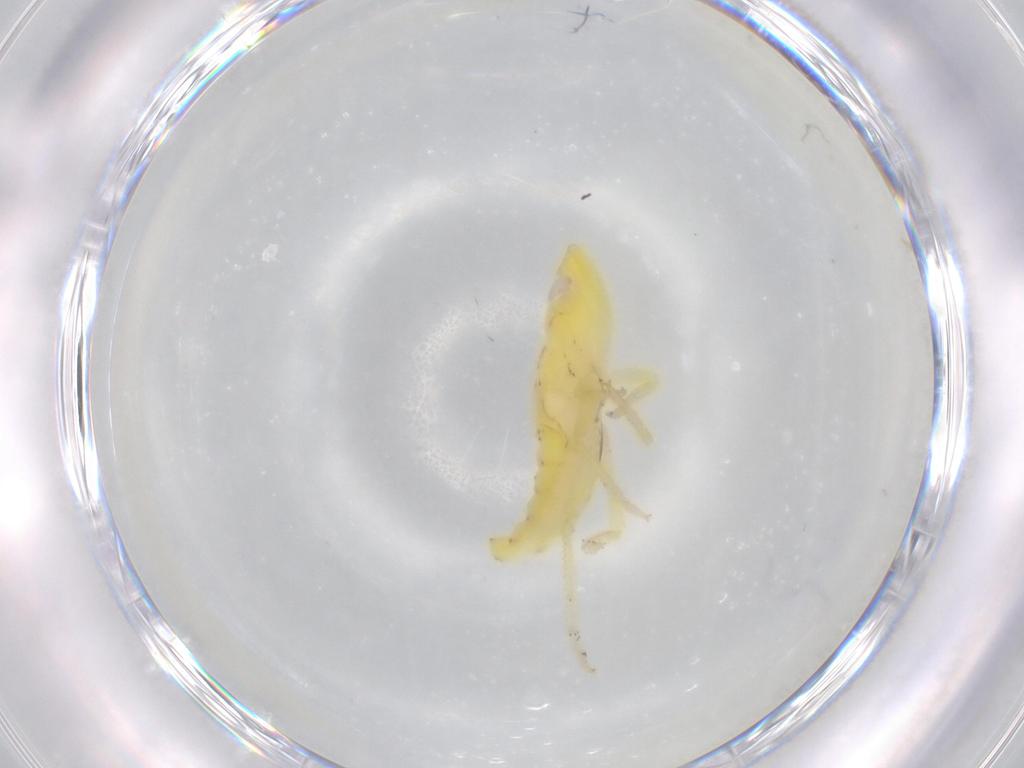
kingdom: Animalia
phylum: Arthropoda
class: Insecta
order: Hemiptera
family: Tropiduchidae
